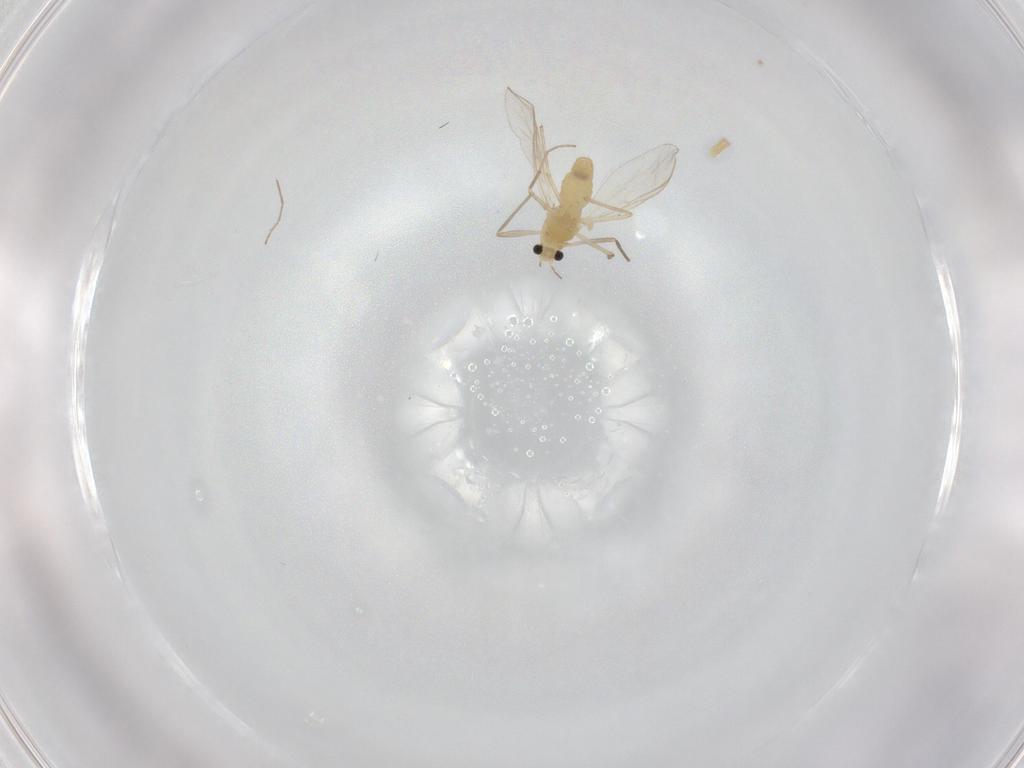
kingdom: Animalia
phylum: Arthropoda
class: Insecta
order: Diptera
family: Chironomidae
